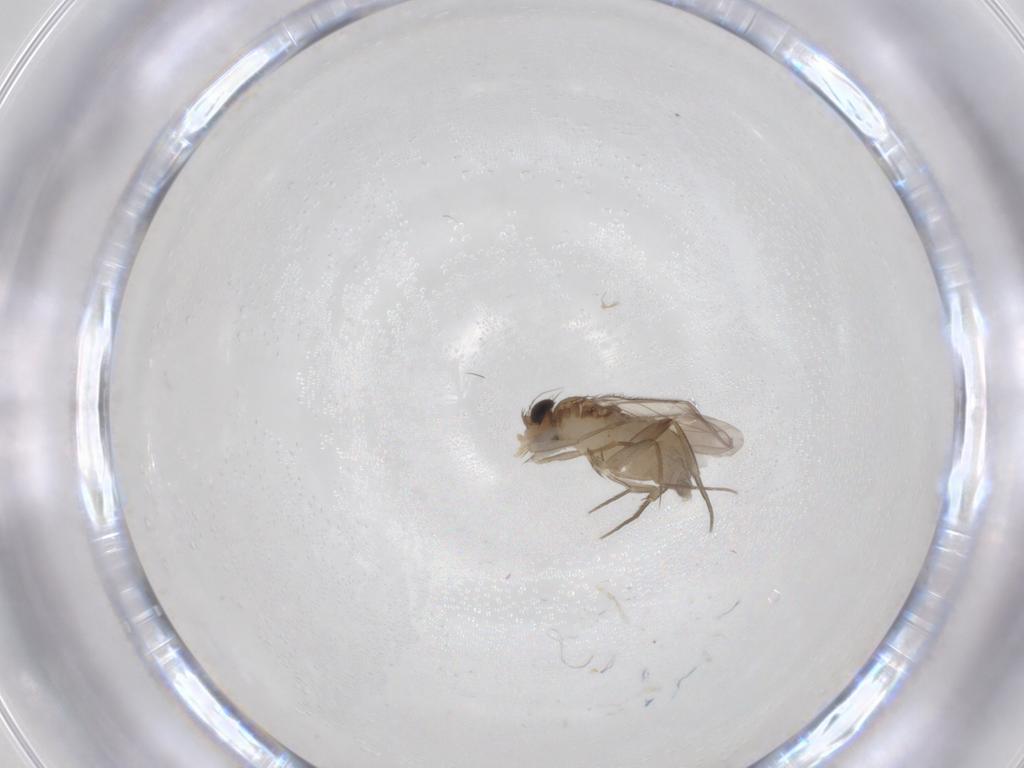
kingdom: Animalia
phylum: Arthropoda
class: Insecta
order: Diptera
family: Phoridae
